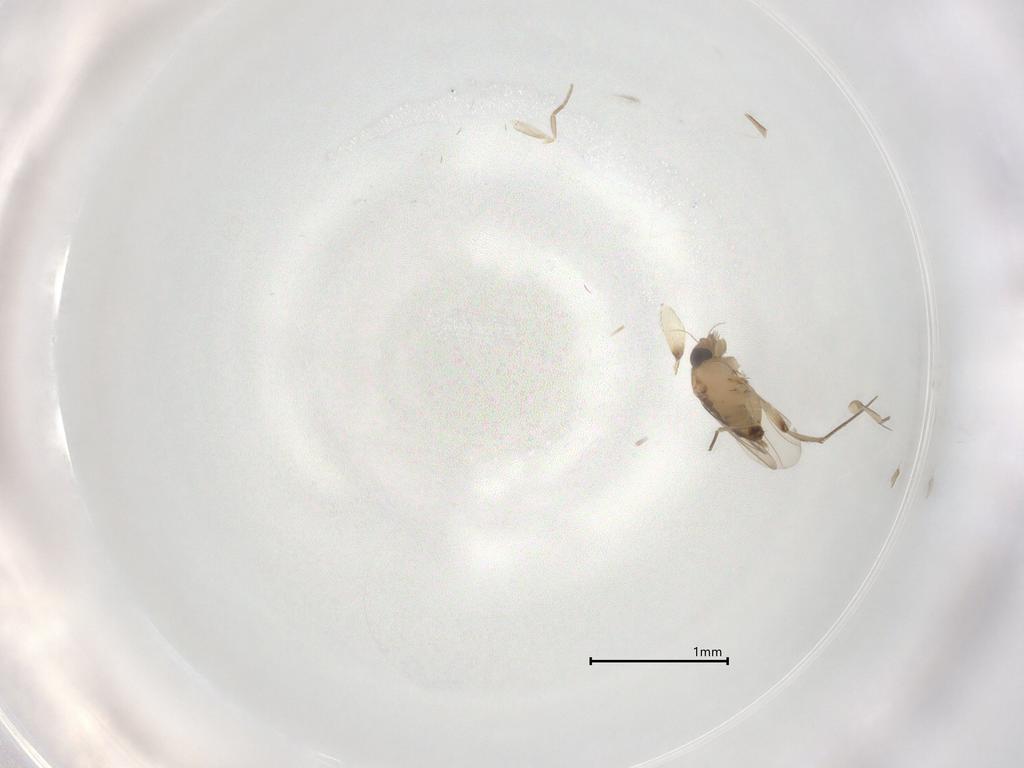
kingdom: Animalia
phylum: Arthropoda
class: Insecta
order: Diptera
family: Phoridae
